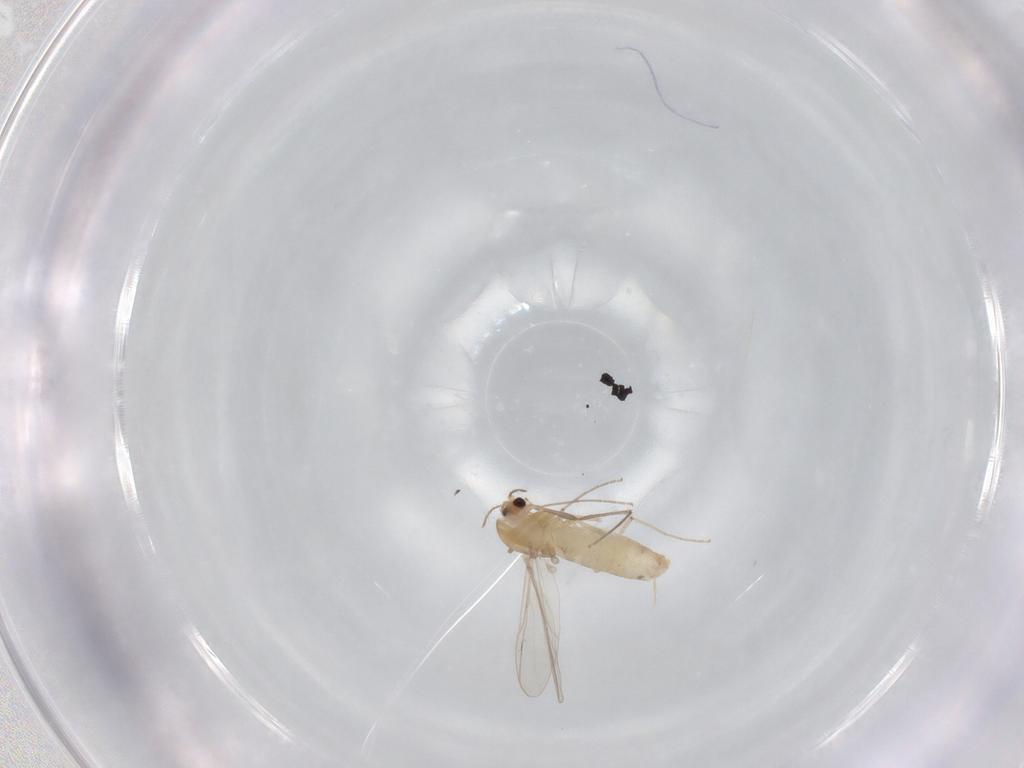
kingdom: Animalia
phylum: Arthropoda
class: Insecta
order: Diptera
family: Chironomidae
